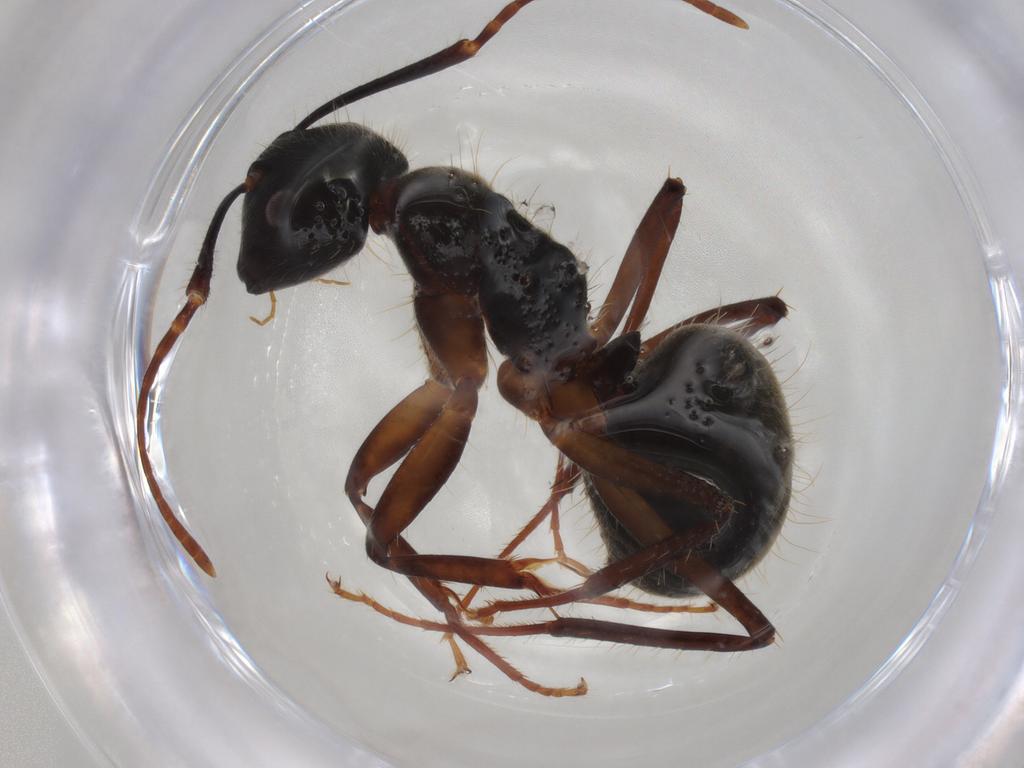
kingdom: Animalia
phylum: Arthropoda
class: Insecta
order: Hymenoptera
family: Formicidae
